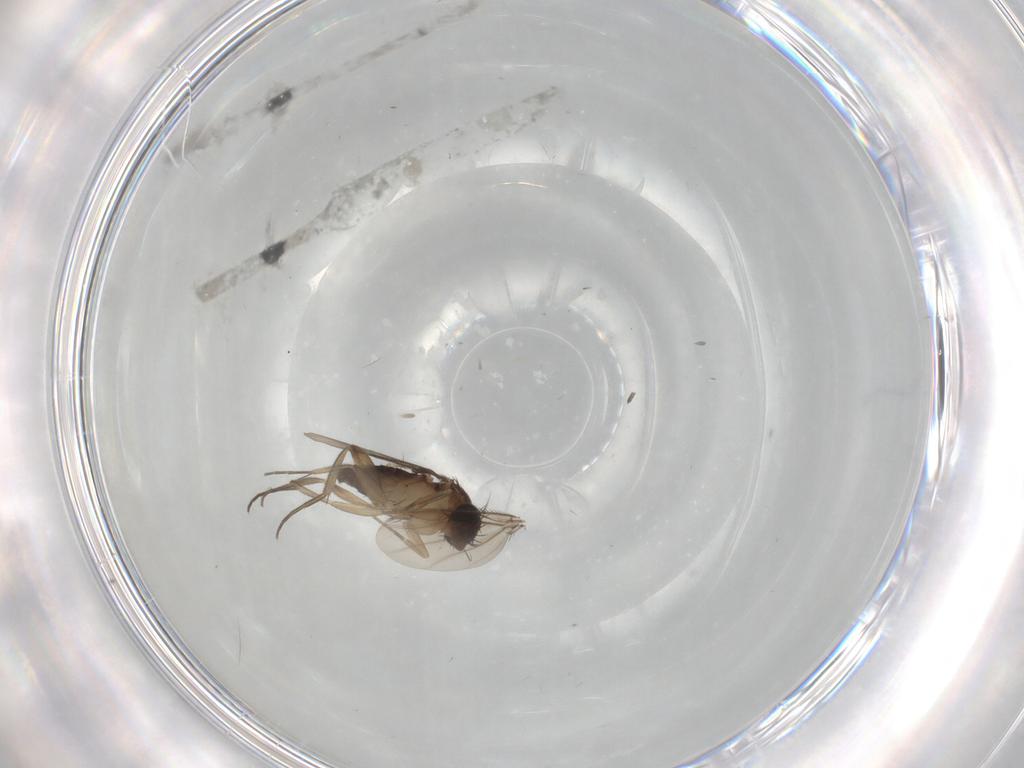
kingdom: Animalia
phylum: Arthropoda
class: Insecta
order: Diptera
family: Phoridae
